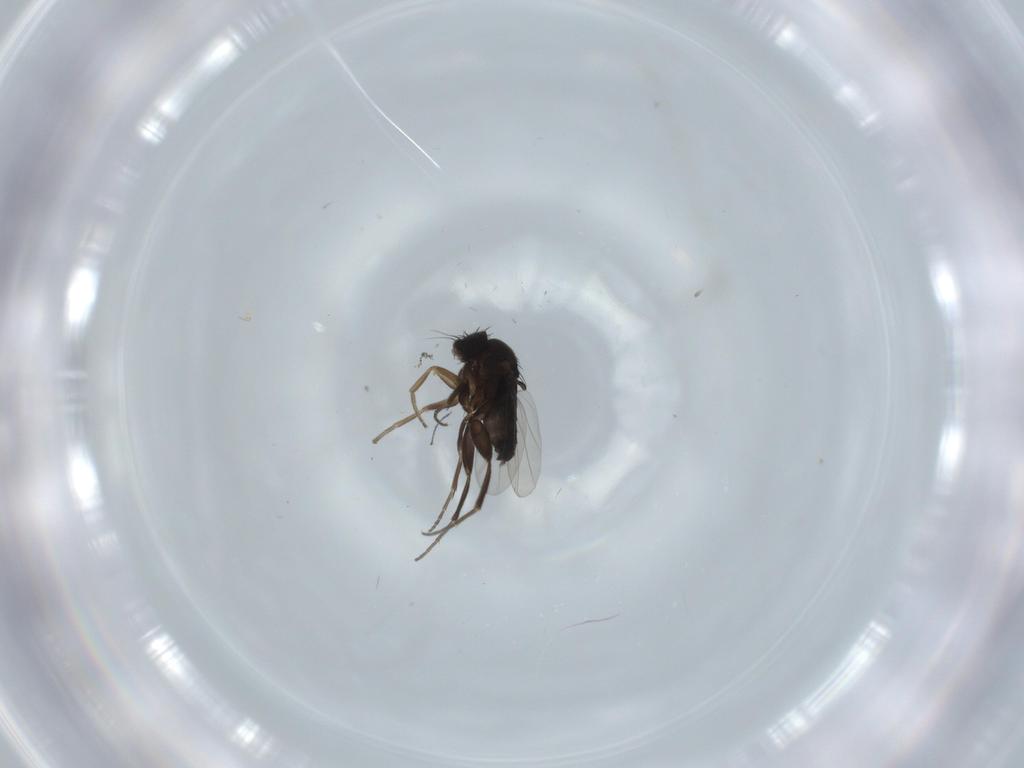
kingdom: Animalia
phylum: Arthropoda
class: Insecta
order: Diptera
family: Phoridae
